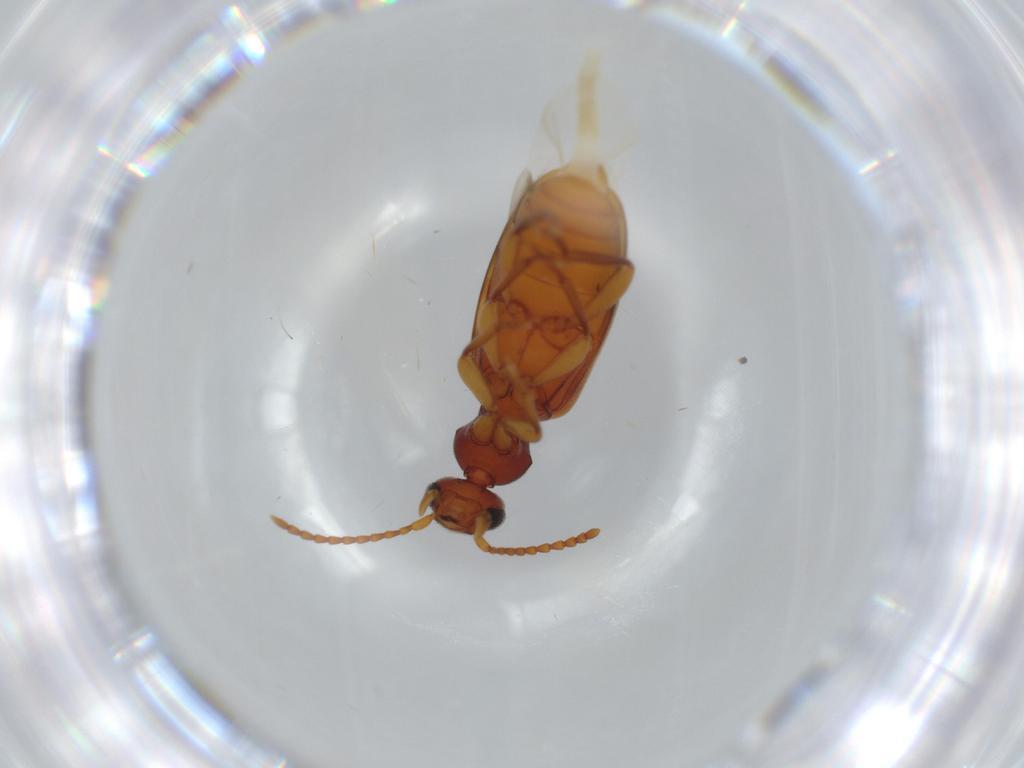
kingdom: Animalia
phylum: Arthropoda
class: Insecta
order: Coleoptera
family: Anthicidae
